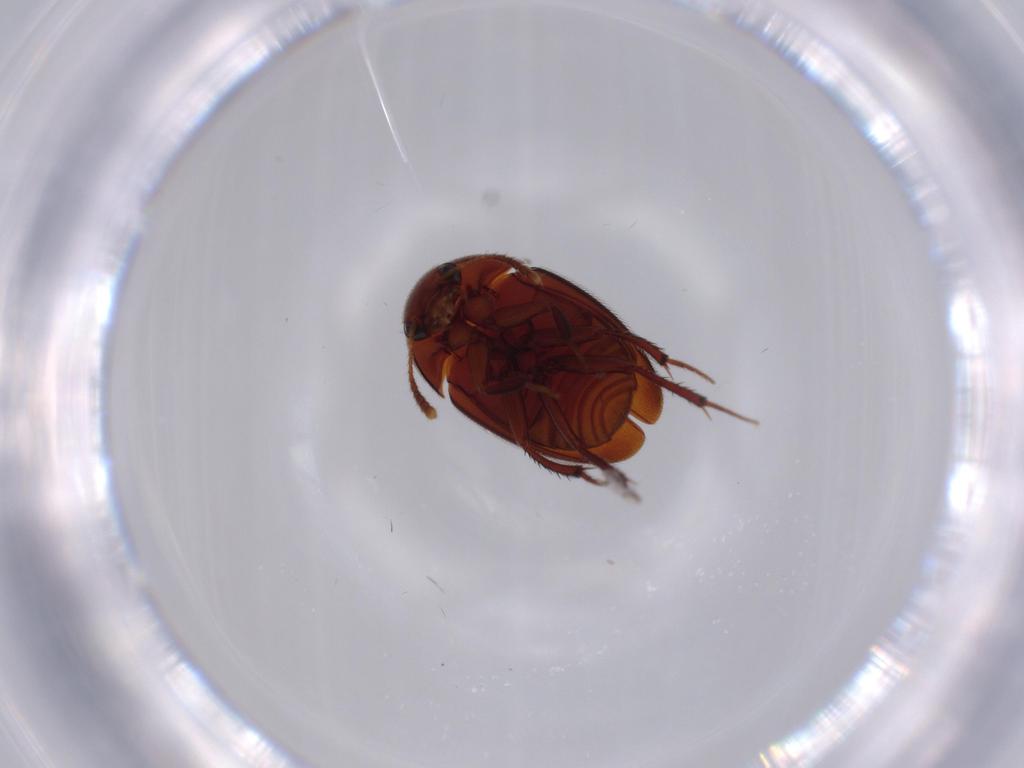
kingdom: Animalia
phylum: Arthropoda
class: Insecta
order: Coleoptera
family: Leiodidae
